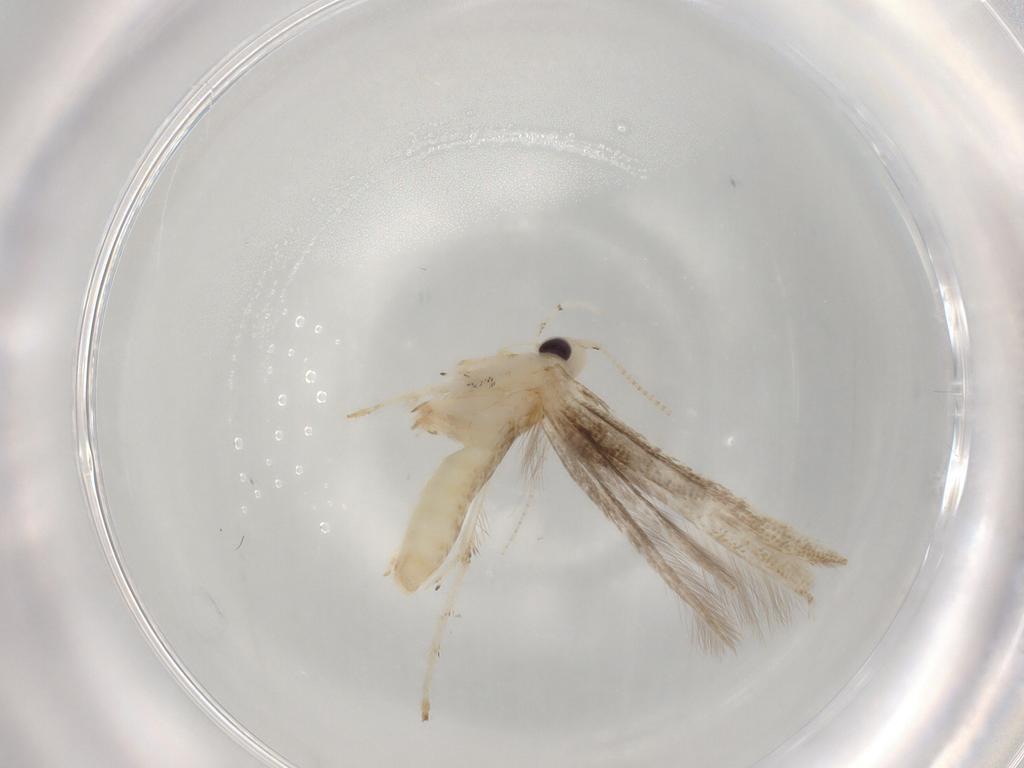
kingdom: Animalia
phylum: Arthropoda
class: Insecta
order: Lepidoptera
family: Gracillariidae
